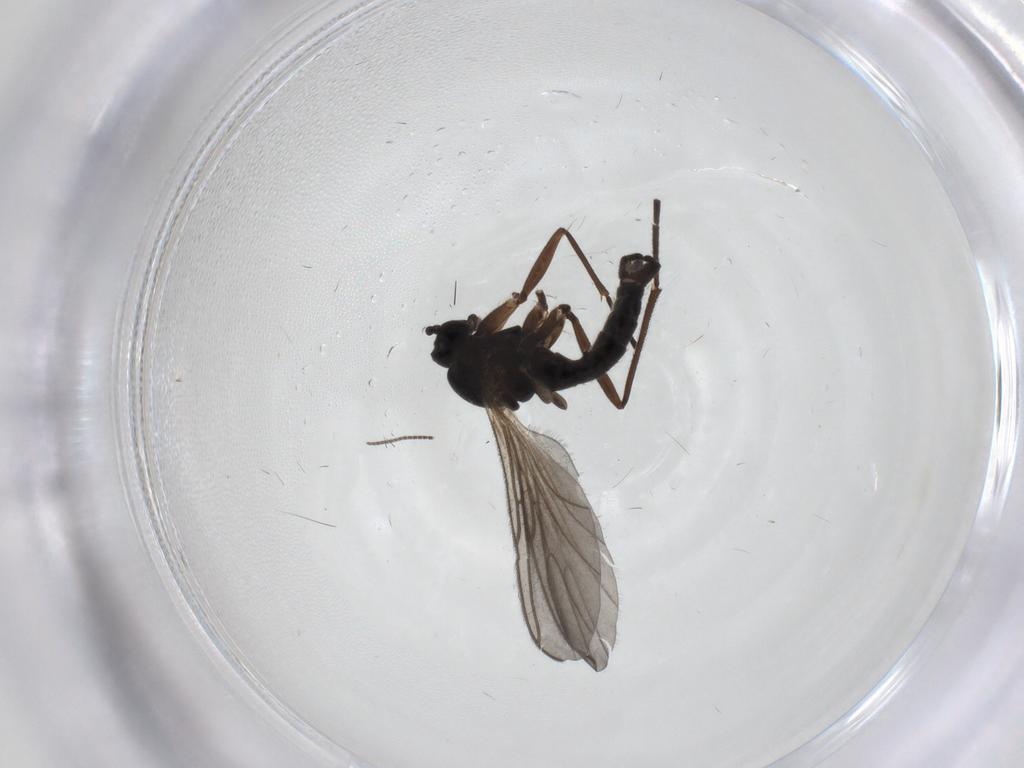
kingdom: Animalia
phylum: Arthropoda
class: Insecta
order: Diptera
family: Sciaridae
